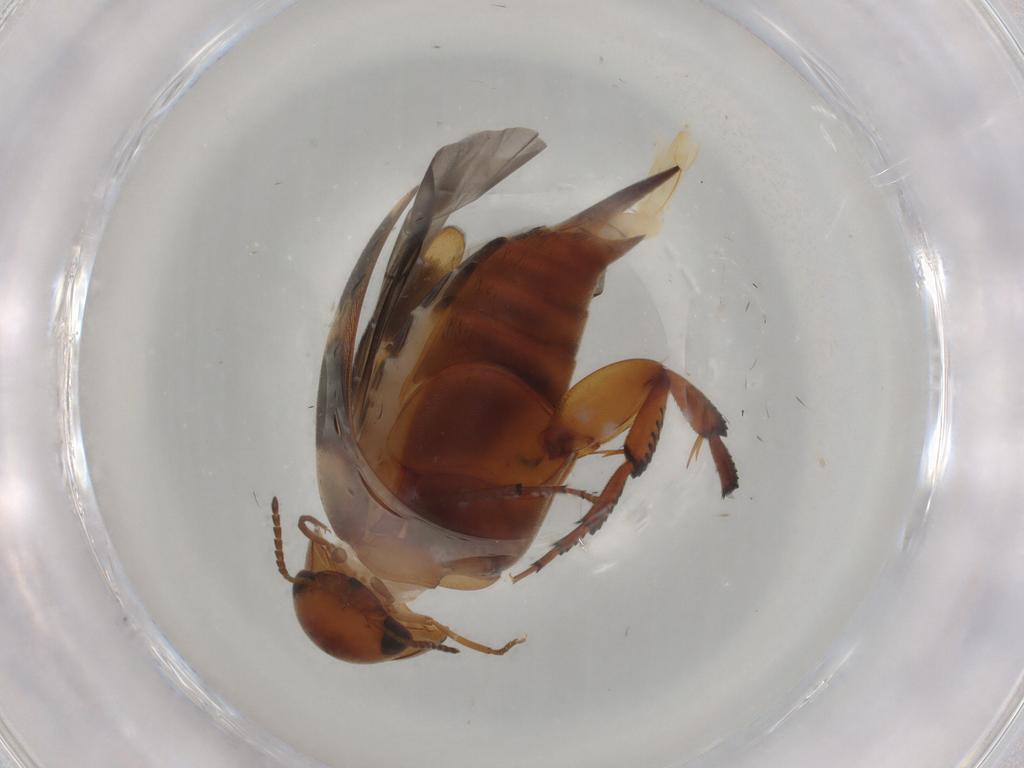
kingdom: Animalia
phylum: Arthropoda
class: Insecta
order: Coleoptera
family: Mordellidae
